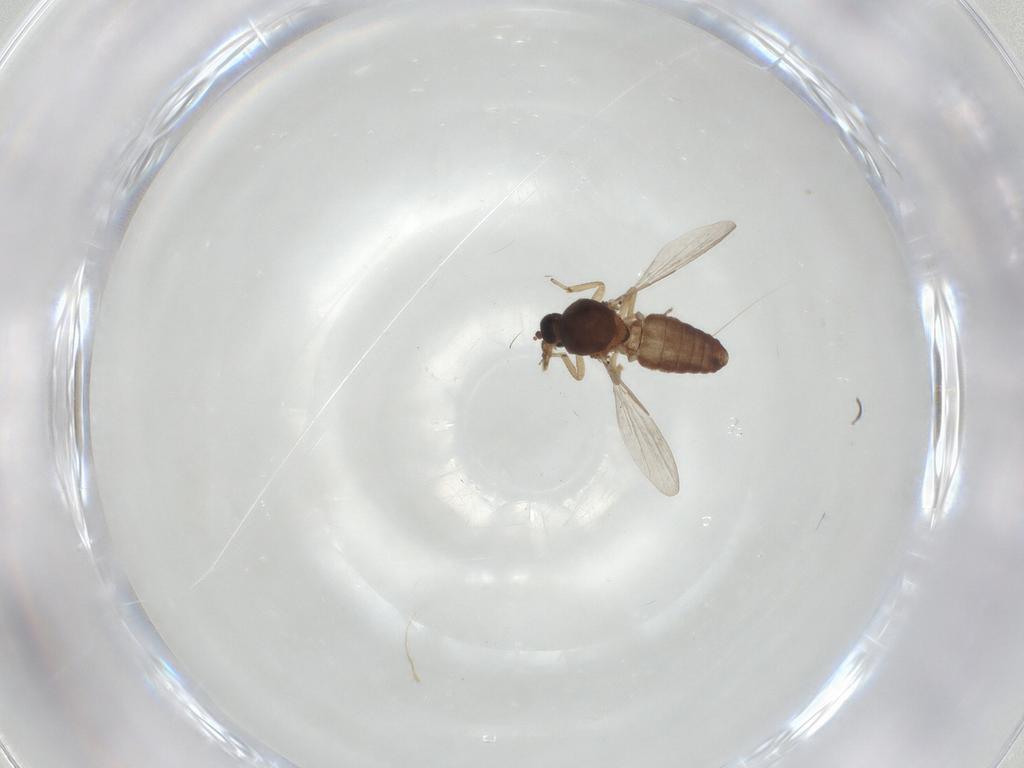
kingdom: Animalia
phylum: Arthropoda
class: Insecta
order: Diptera
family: Ceratopogonidae
